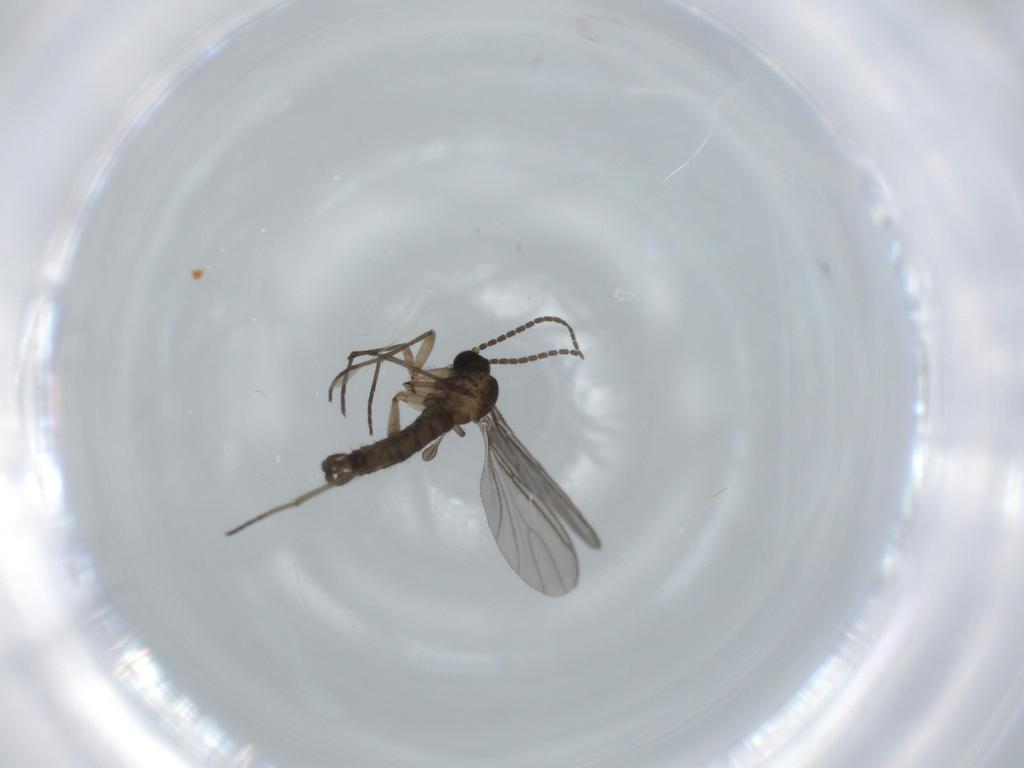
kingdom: Animalia
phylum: Arthropoda
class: Insecta
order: Diptera
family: Sciaridae
